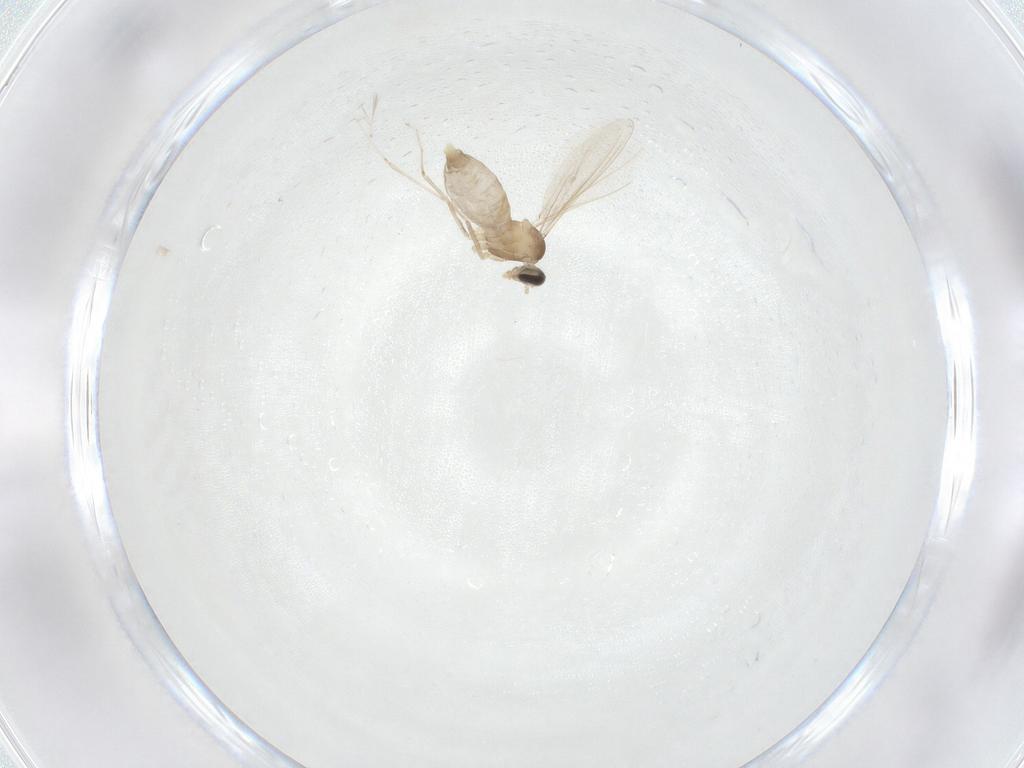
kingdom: Animalia
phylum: Arthropoda
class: Insecta
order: Diptera
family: Cecidomyiidae
